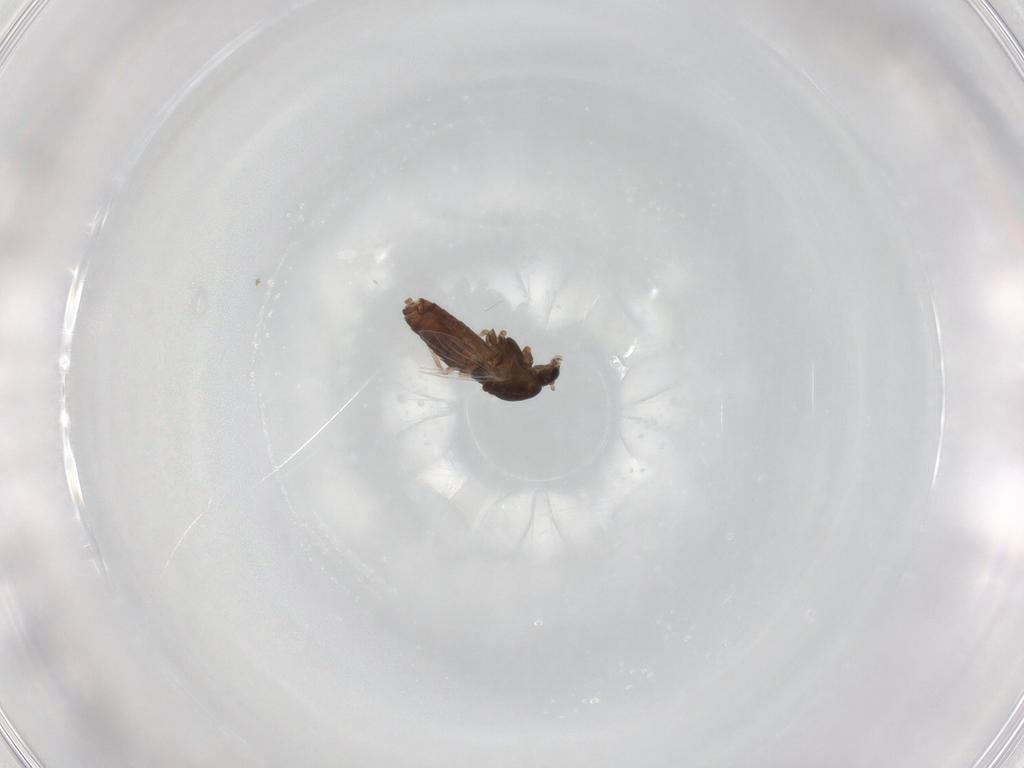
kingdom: Animalia
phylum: Arthropoda
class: Insecta
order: Diptera
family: Chironomidae
